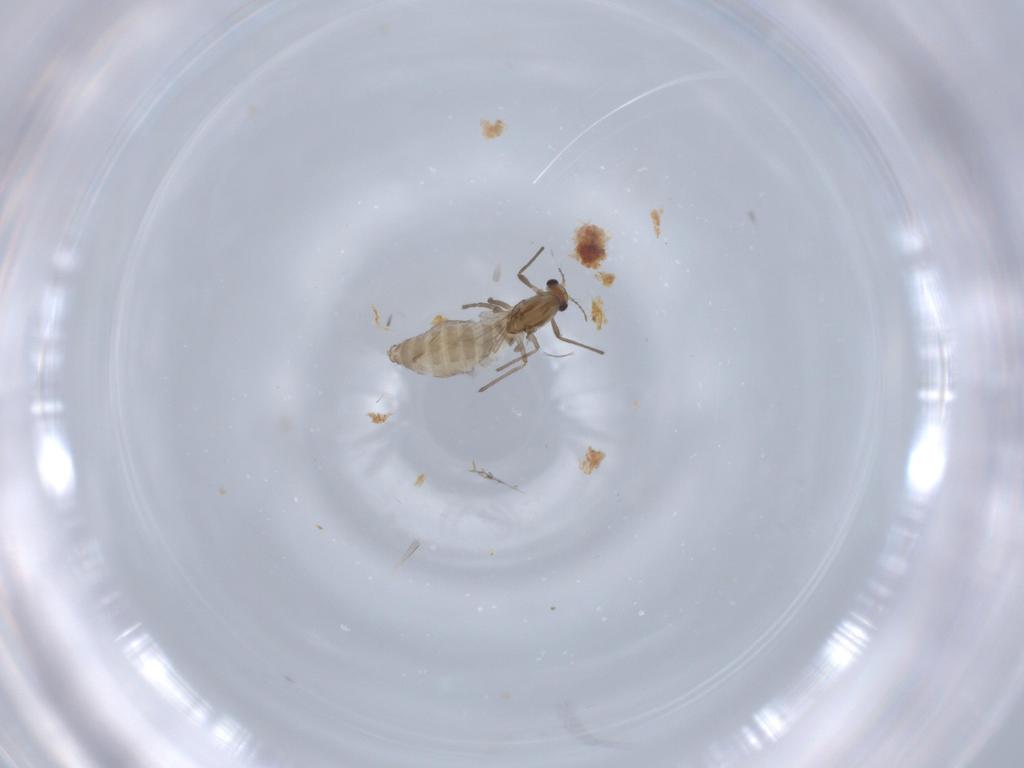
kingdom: Animalia
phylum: Arthropoda
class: Insecta
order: Diptera
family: Chironomidae
